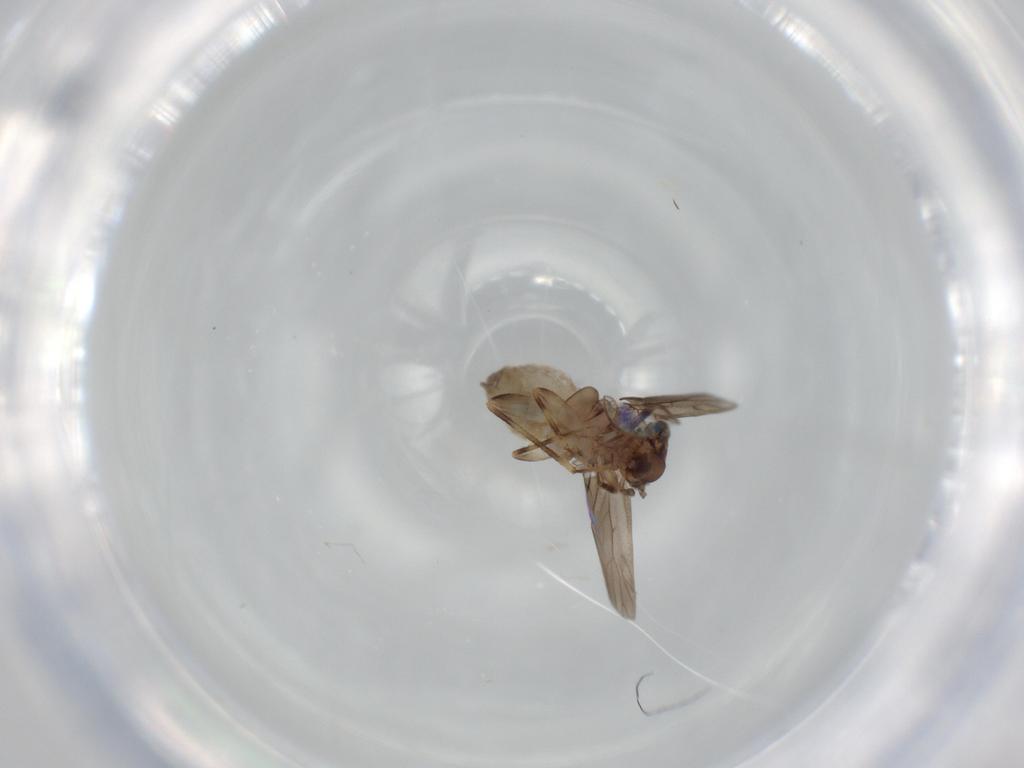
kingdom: Animalia
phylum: Arthropoda
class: Insecta
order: Psocodea
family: Lepidopsocidae
